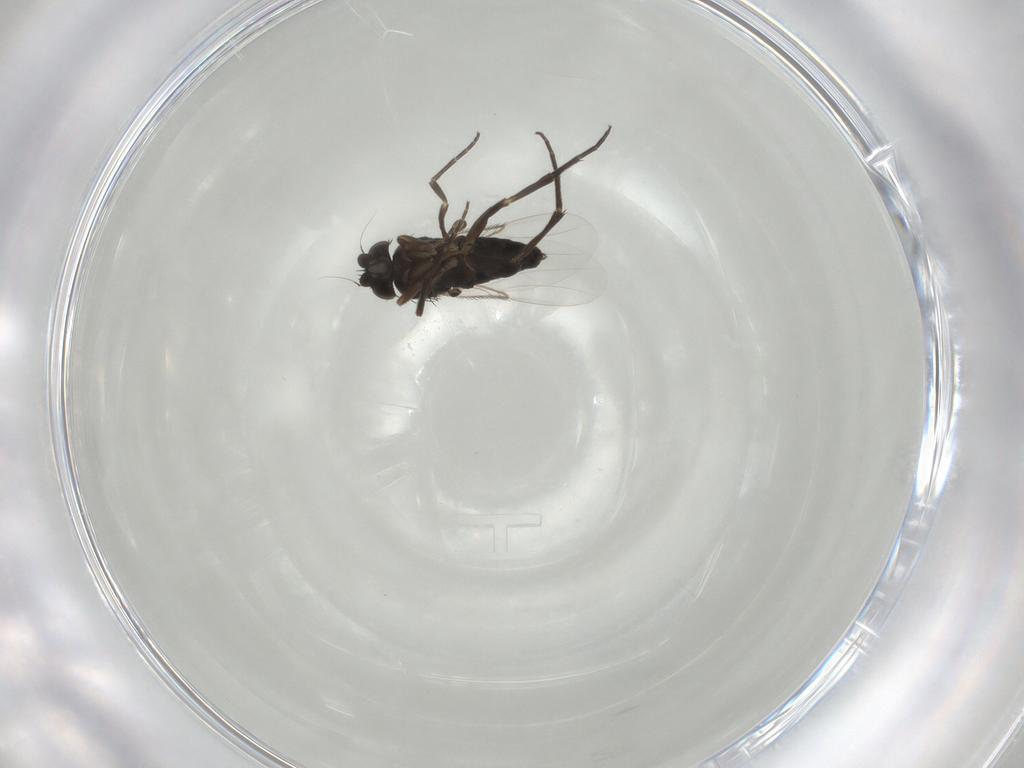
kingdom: Animalia
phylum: Arthropoda
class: Insecta
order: Diptera
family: Phoridae
